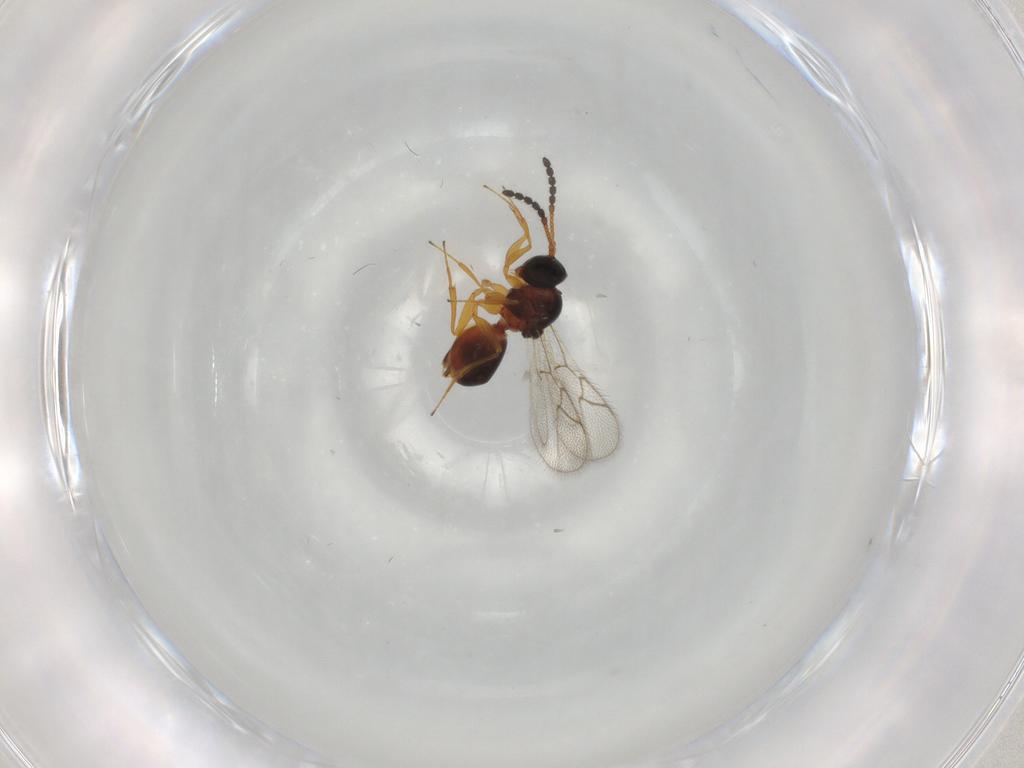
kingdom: Animalia
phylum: Arthropoda
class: Insecta
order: Hymenoptera
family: Figitidae
